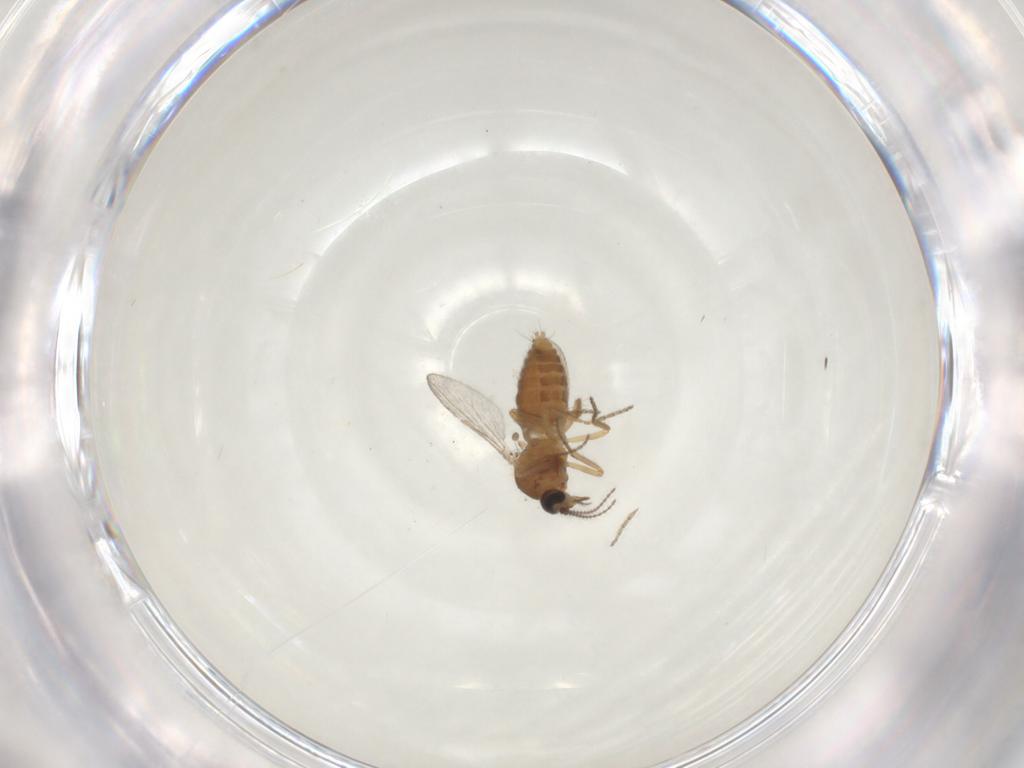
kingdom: Animalia
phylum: Arthropoda
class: Insecta
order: Diptera
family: Ceratopogonidae
